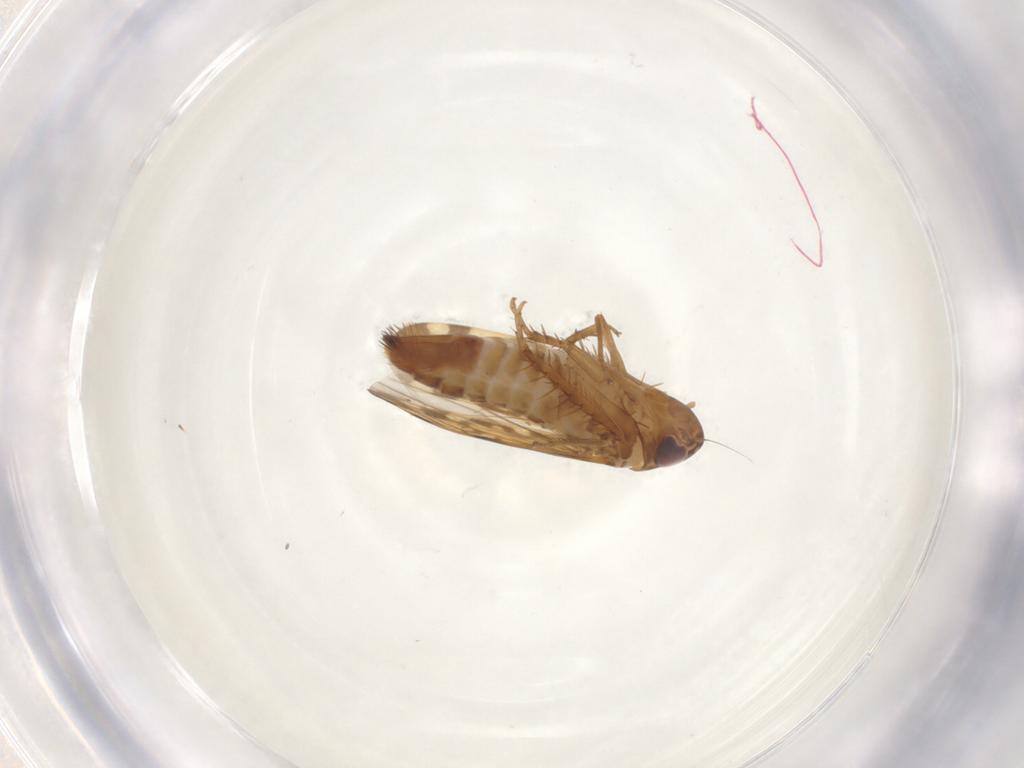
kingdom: Animalia
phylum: Arthropoda
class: Insecta
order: Hemiptera
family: Cicadellidae
